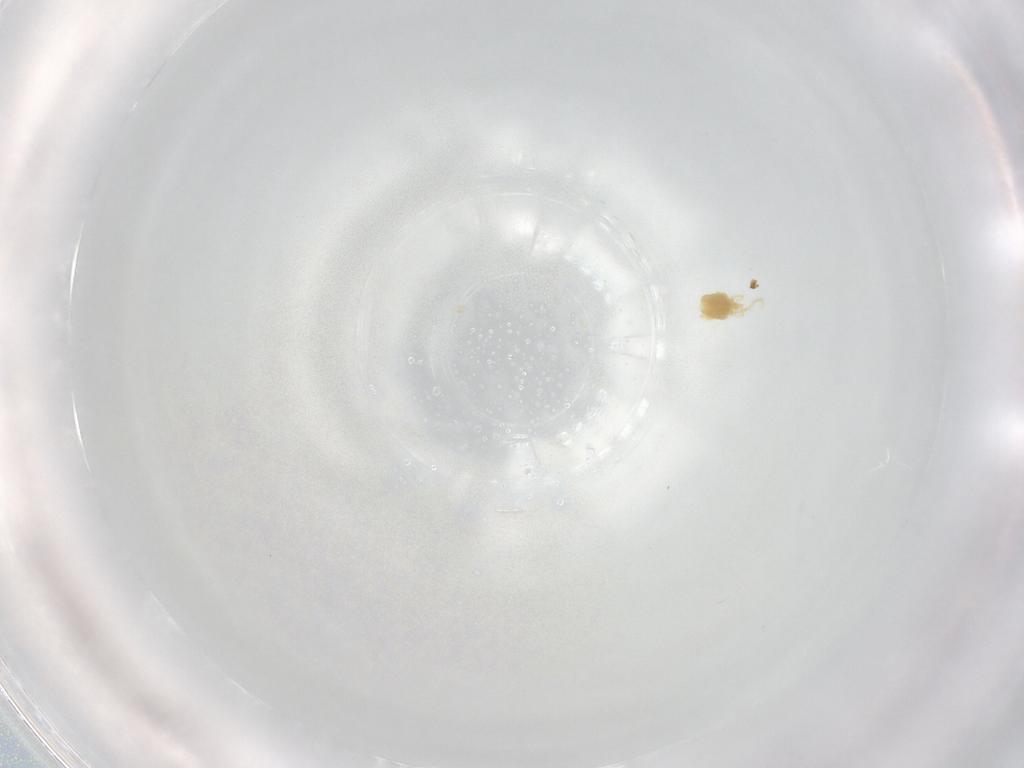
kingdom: Animalia
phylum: Arthropoda
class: Arachnida
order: Trombidiformes
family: Eupodidae
